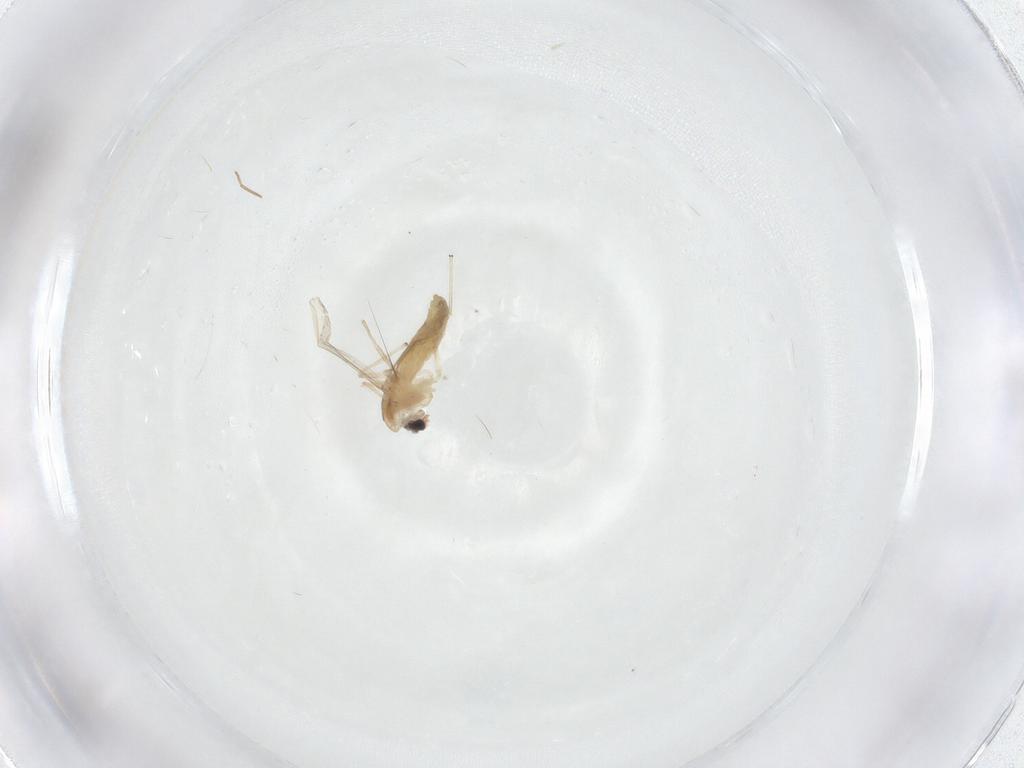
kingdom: Animalia
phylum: Arthropoda
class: Insecta
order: Diptera
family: Chironomidae
